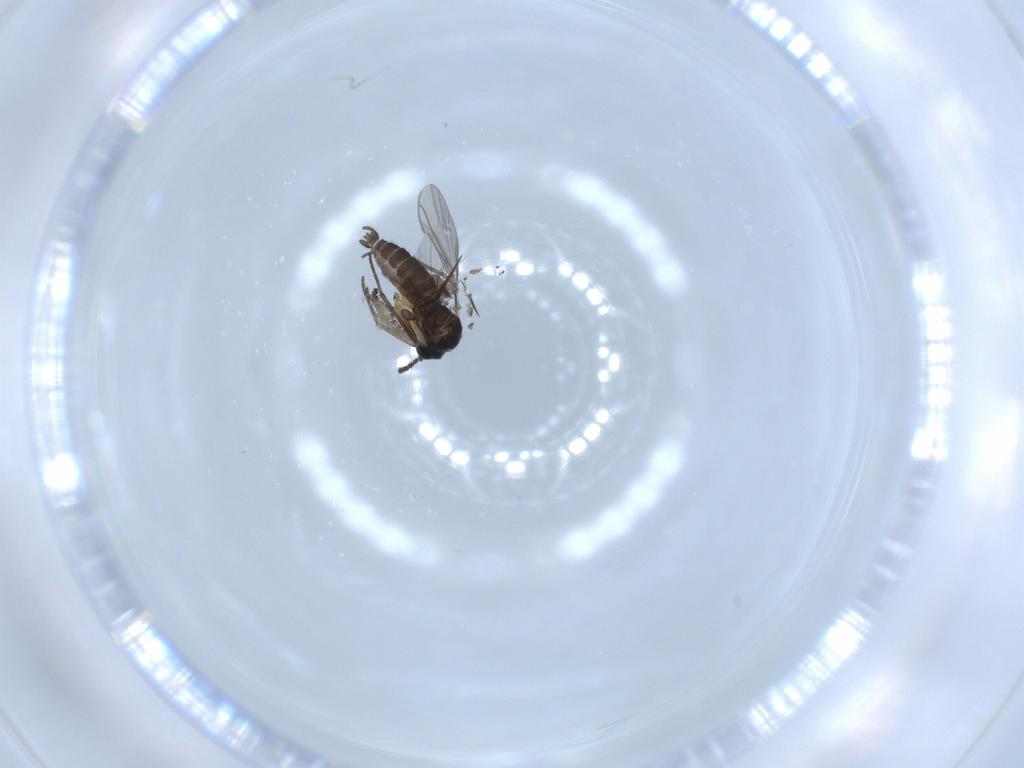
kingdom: Animalia
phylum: Arthropoda
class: Insecta
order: Diptera
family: Sciaridae
